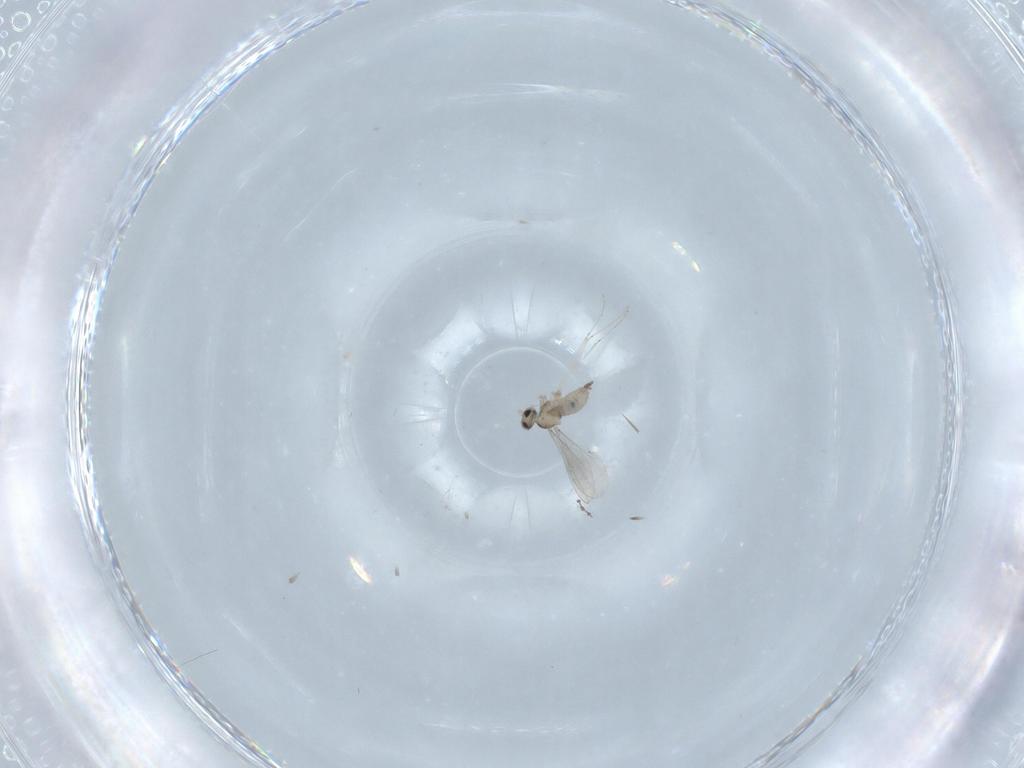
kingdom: Animalia
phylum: Arthropoda
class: Insecta
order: Diptera
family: Cecidomyiidae
